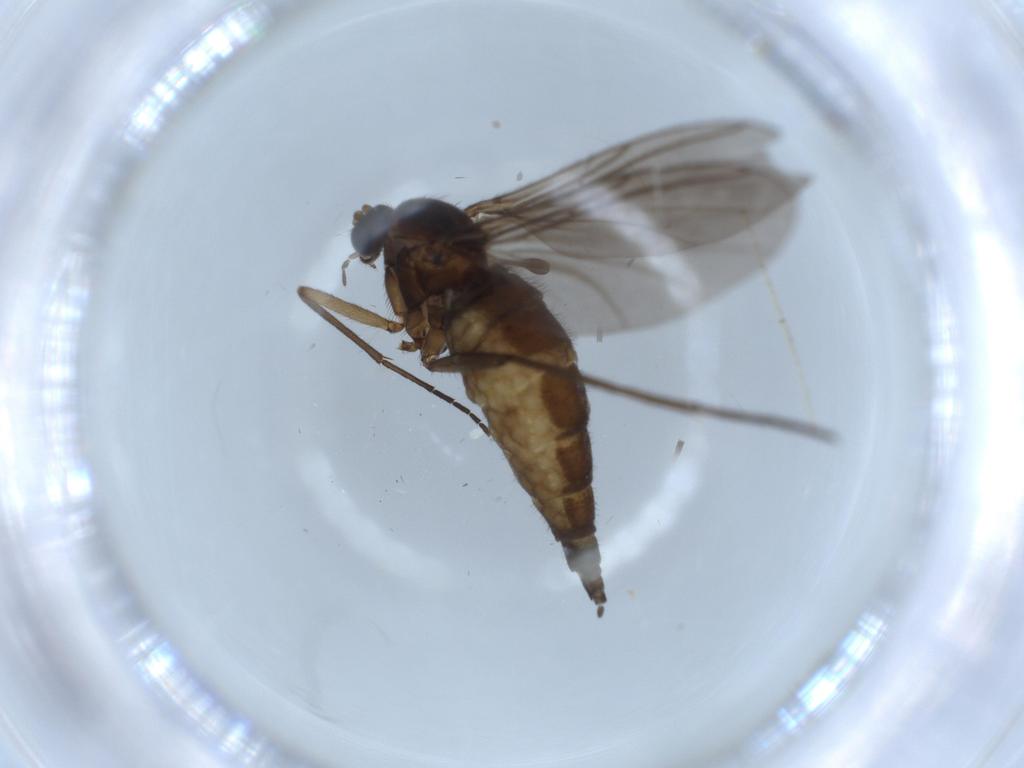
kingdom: Animalia
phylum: Arthropoda
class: Insecta
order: Diptera
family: Sciaridae
